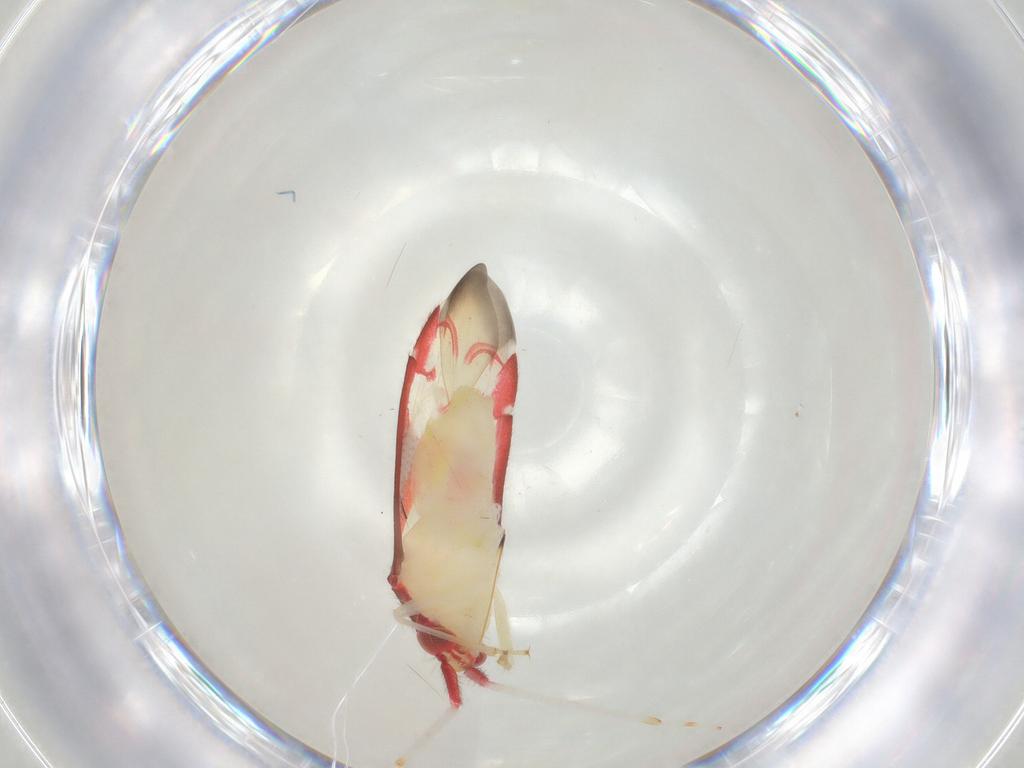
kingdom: Animalia
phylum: Arthropoda
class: Insecta
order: Hemiptera
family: Miridae
